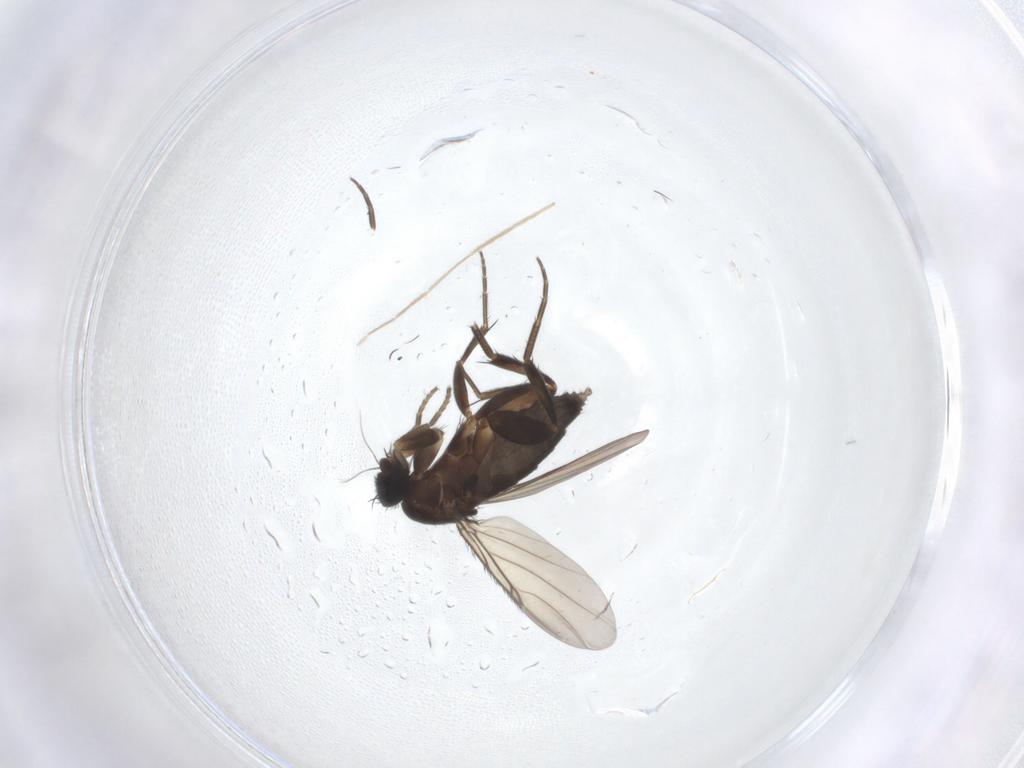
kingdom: Animalia
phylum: Arthropoda
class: Insecta
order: Diptera
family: Phoridae
